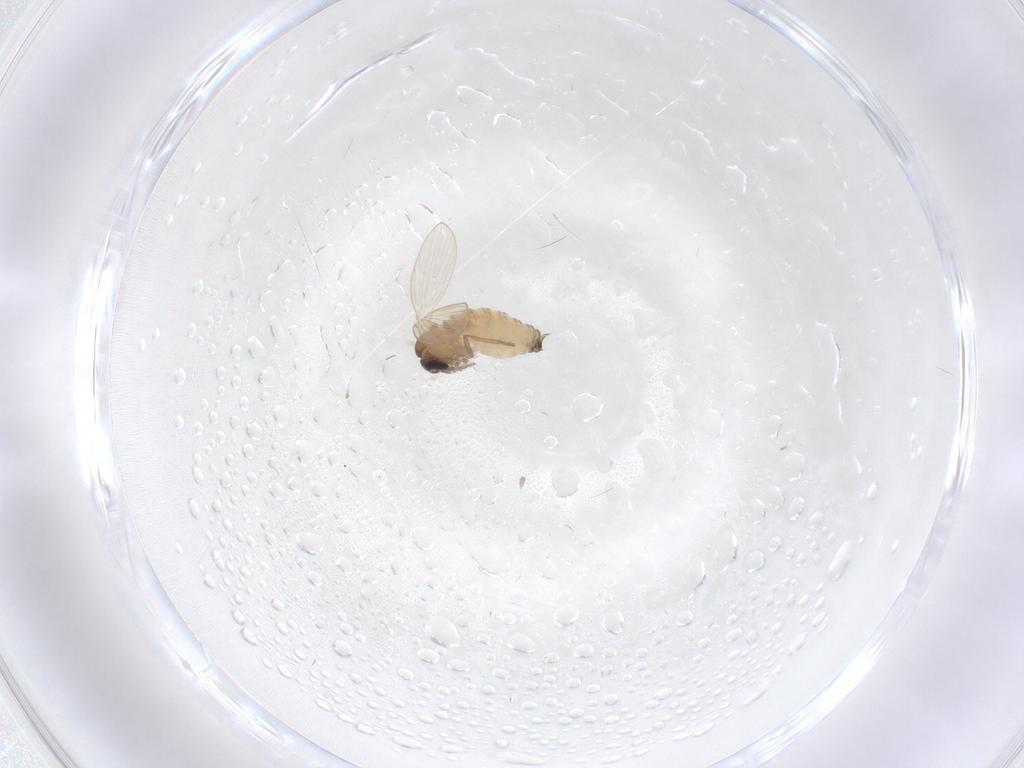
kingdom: Animalia
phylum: Arthropoda
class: Insecta
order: Diptera
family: Psychodidae
